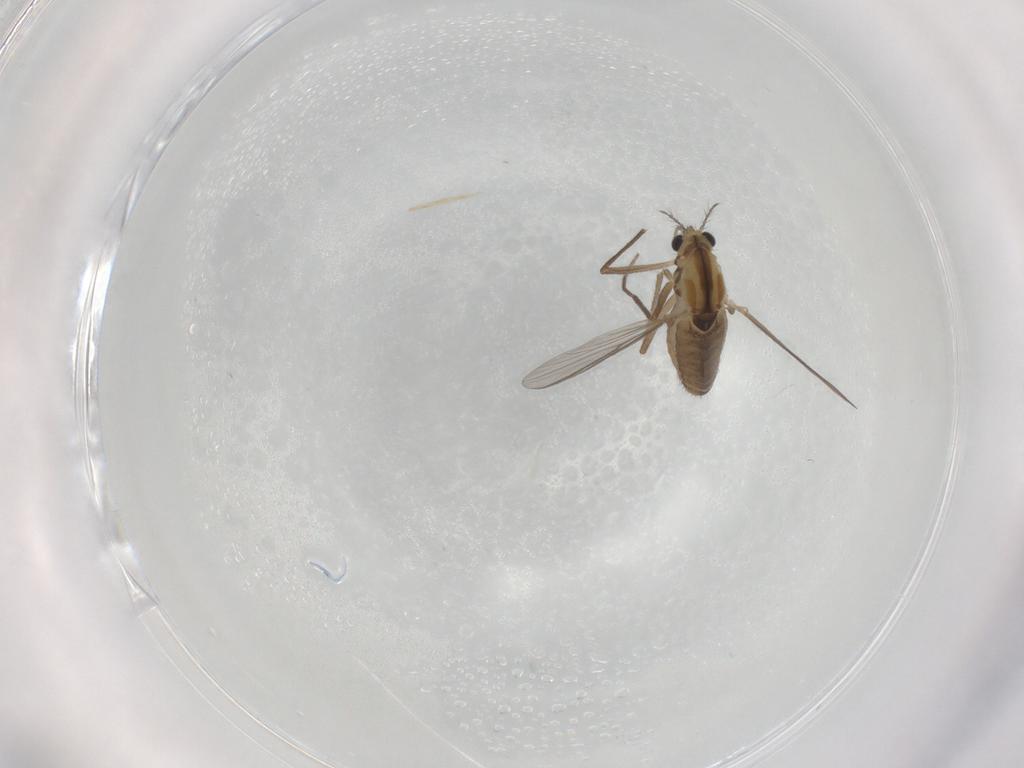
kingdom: Animalia
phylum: Arthropoda
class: Insecta
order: Diptera
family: Chironomidae
